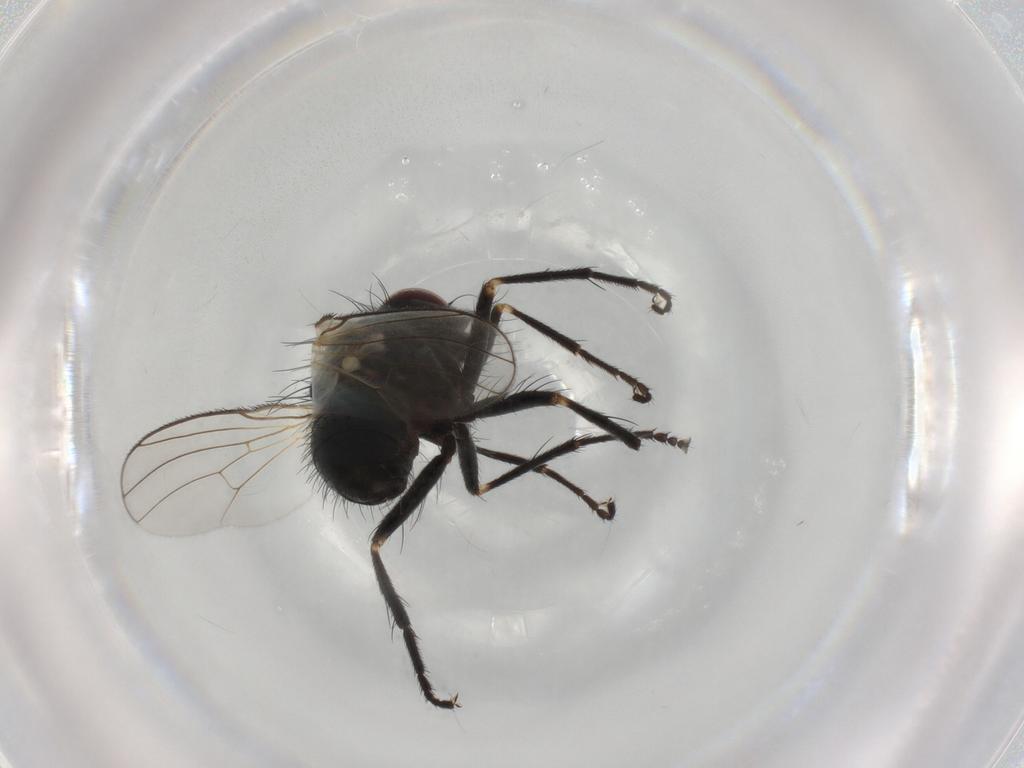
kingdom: Animalia
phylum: Arthropoda
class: Insecta
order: Diptera
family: Muscidae
